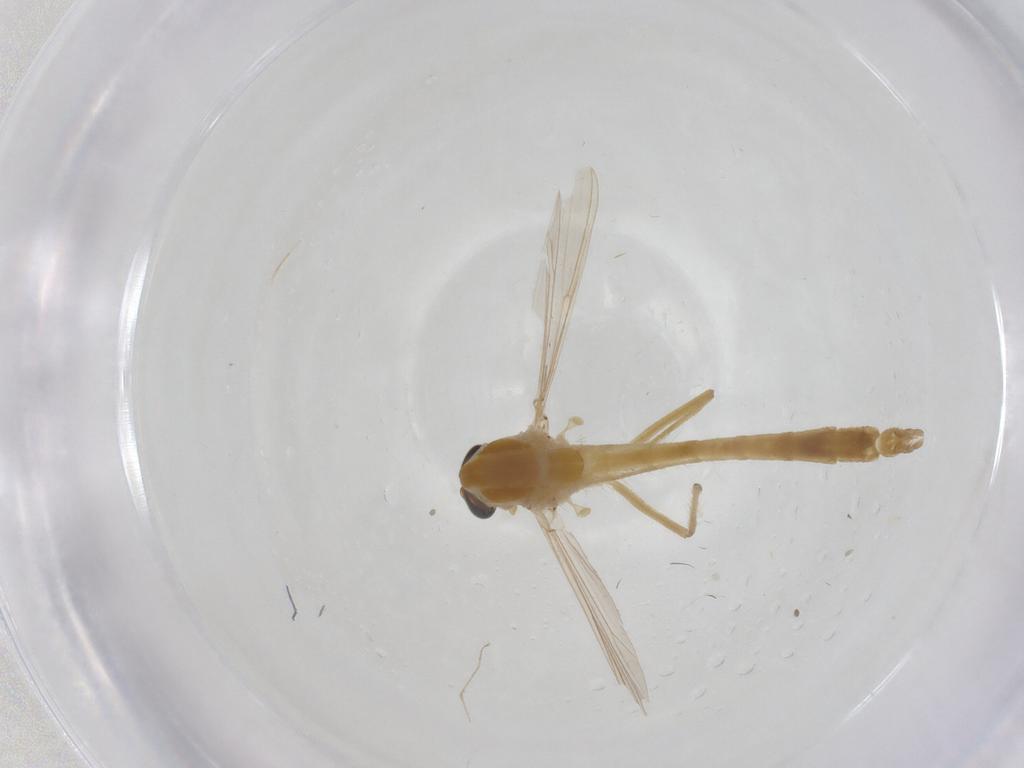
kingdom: Animalia
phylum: Arthropoda
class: Insecta
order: Diptera
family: Chironomidae
